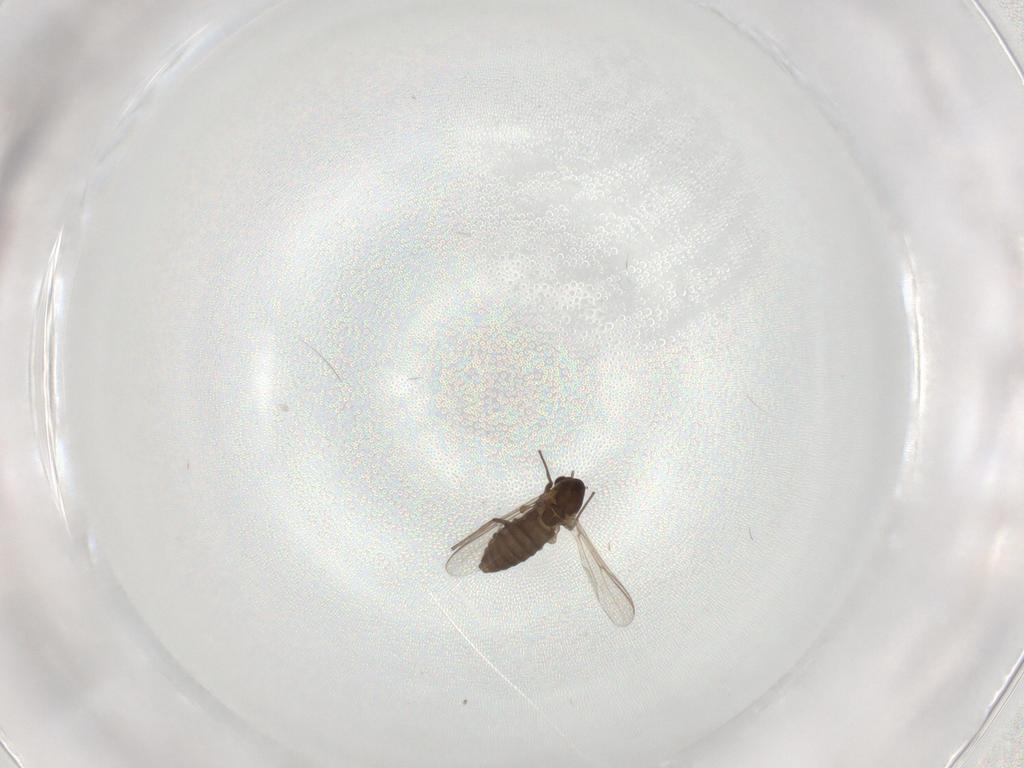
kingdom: Animalia
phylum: Arthropoda
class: Insecta
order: Diptera
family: Chironomidae
